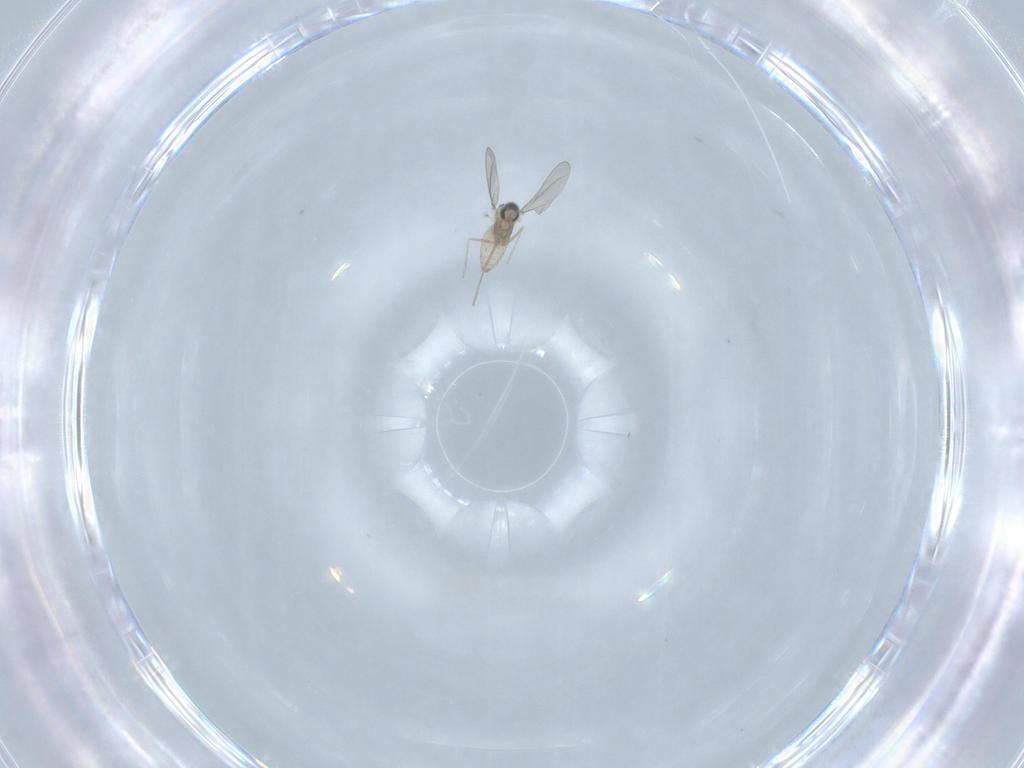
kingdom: Animalia
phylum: Arthropoda
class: Insecta
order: Diptera
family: Cecidomyiidae
